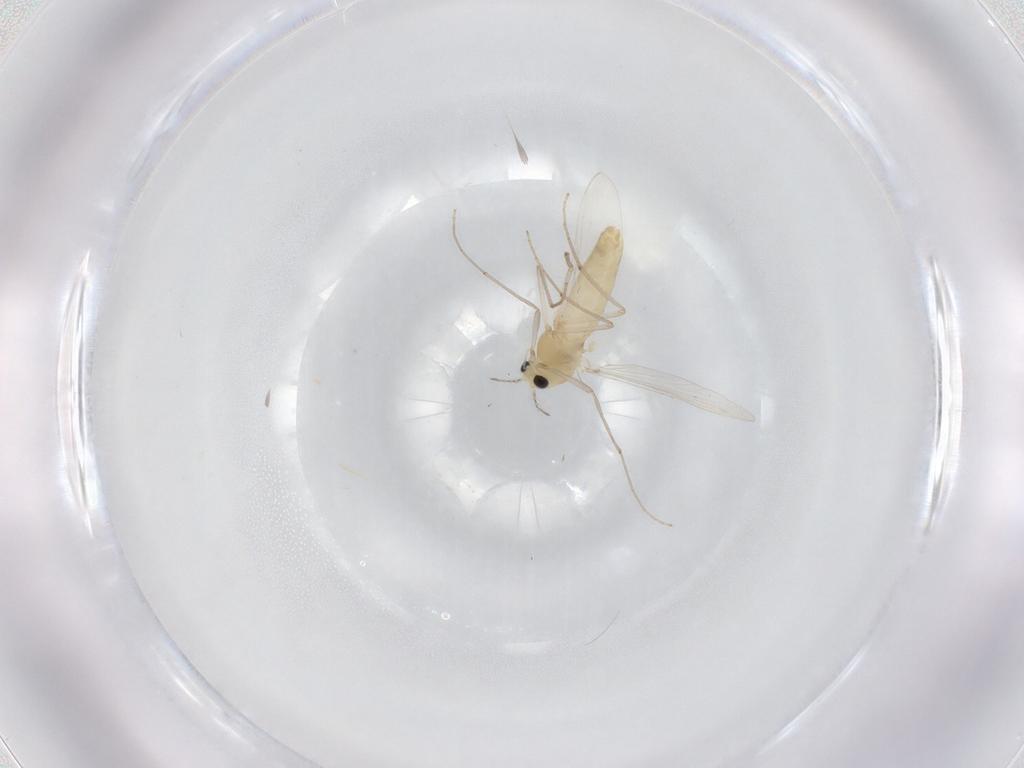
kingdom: Animalia
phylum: Arthropoda
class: Insecta
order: Diptera
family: Chironomidae
